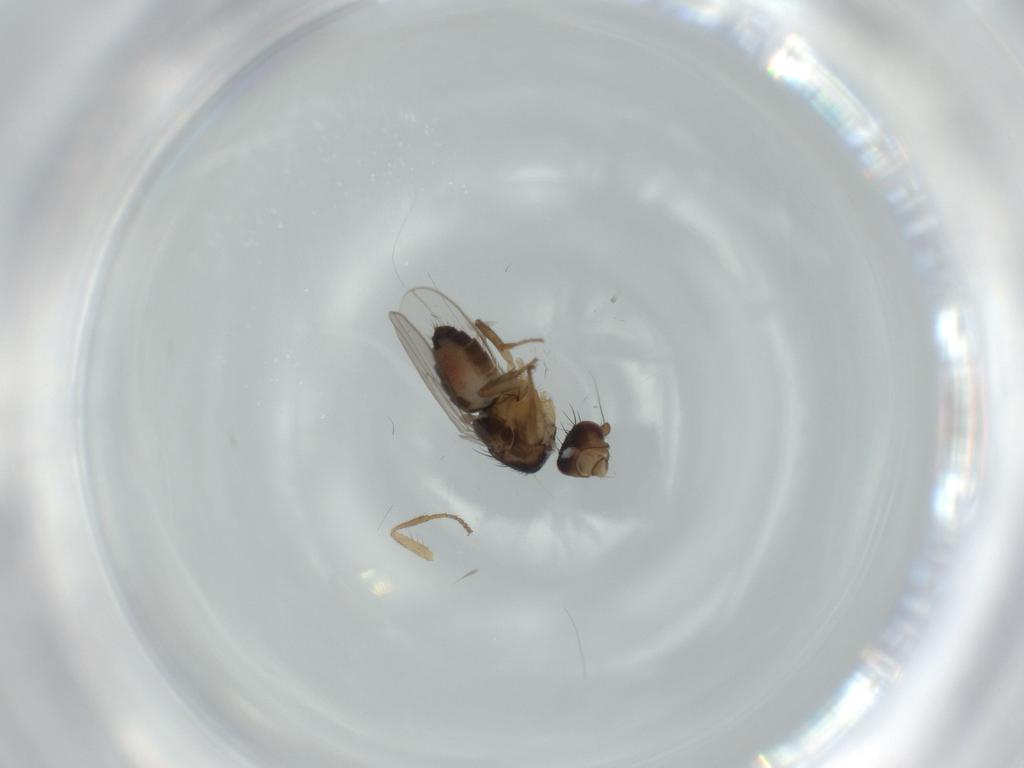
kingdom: Animalia
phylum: Arthropoda
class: Insecta
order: Diptera
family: Sphaeroceridae
